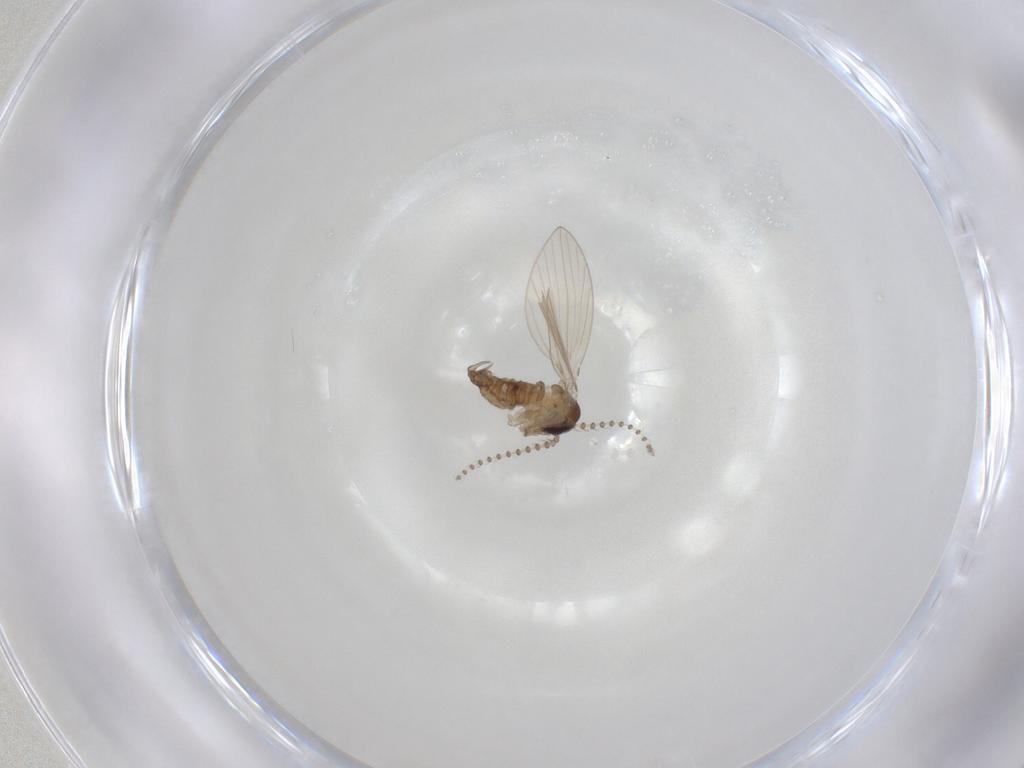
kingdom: Animalia
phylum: Arthropoda
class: Insecta
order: Diptera
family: Psychodidae
